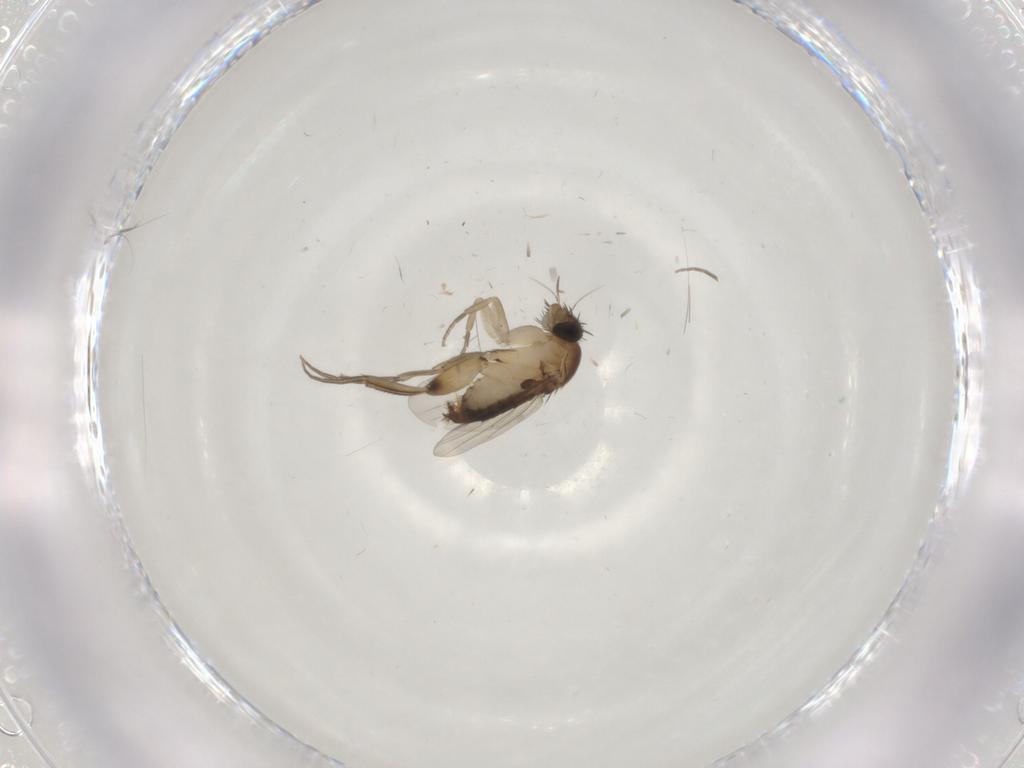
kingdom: Animalia
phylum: Arthropoda
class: Insecta
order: Diptera
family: Phoridae
